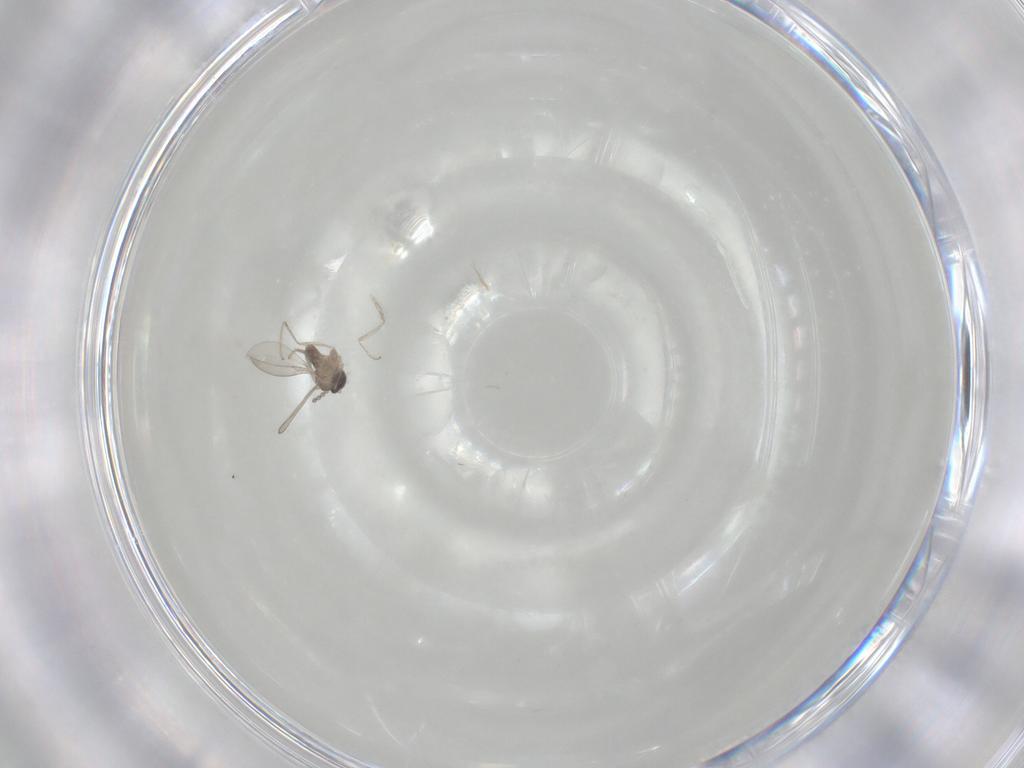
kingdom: Animalia
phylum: Arthropoda
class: Insecta
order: Diptera
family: Cecidomyiidae
